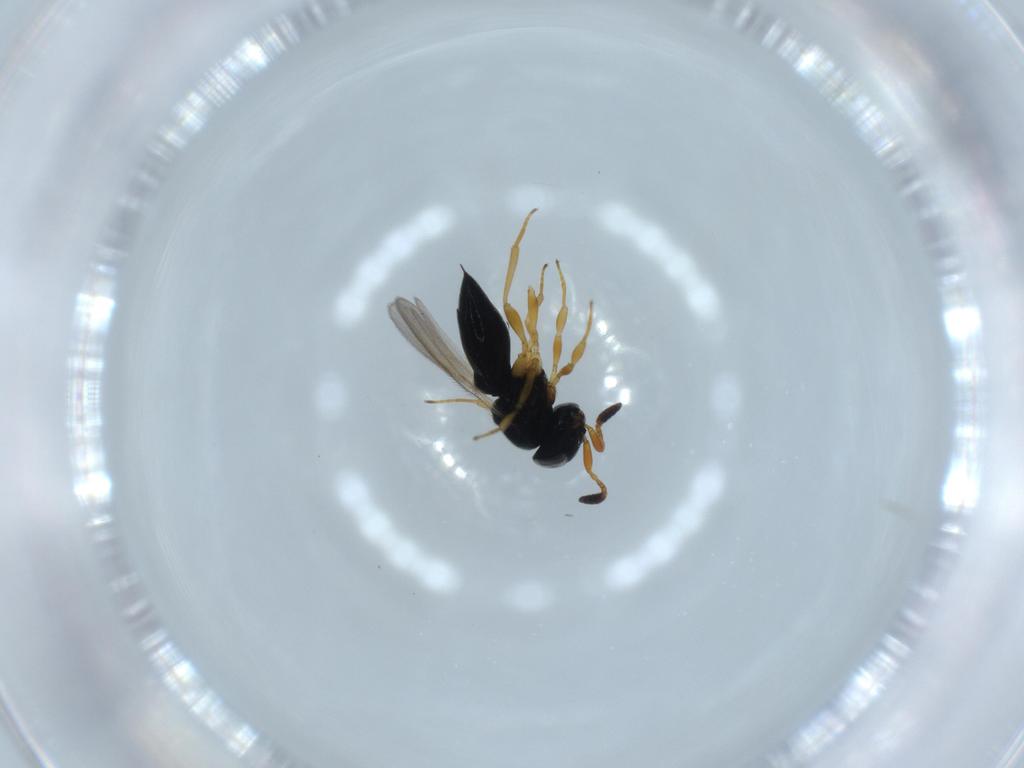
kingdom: Animalia
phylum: Arthropoda
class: Insecta
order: Hymenoptera
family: Scelionidae
